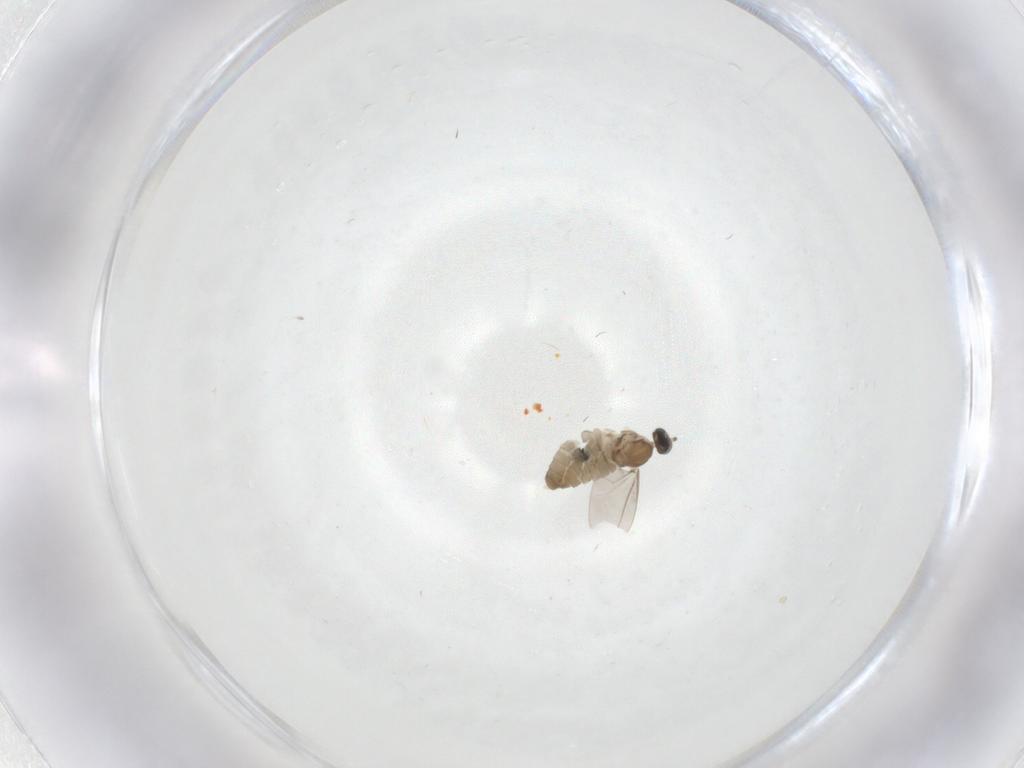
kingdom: Animalia
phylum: Arthropoda
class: Insecta
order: Diptera
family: Cecidomyiidae
